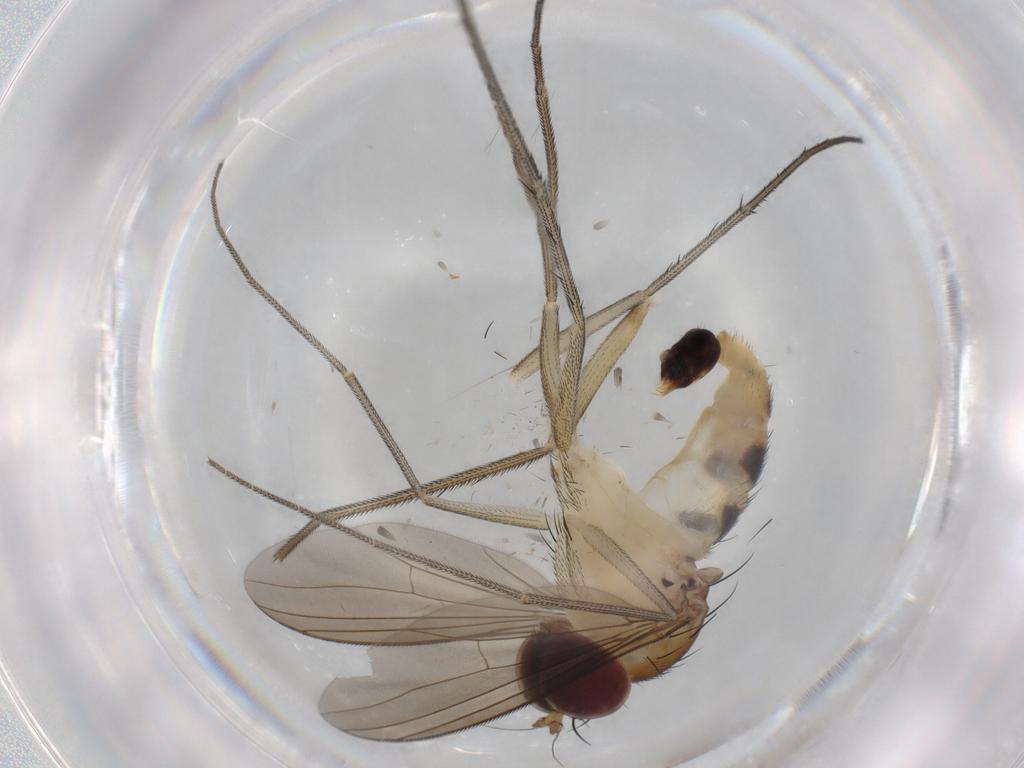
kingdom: Animalia
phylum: Arthropoda
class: Insecta
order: Diptera
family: Dolichopodidae
